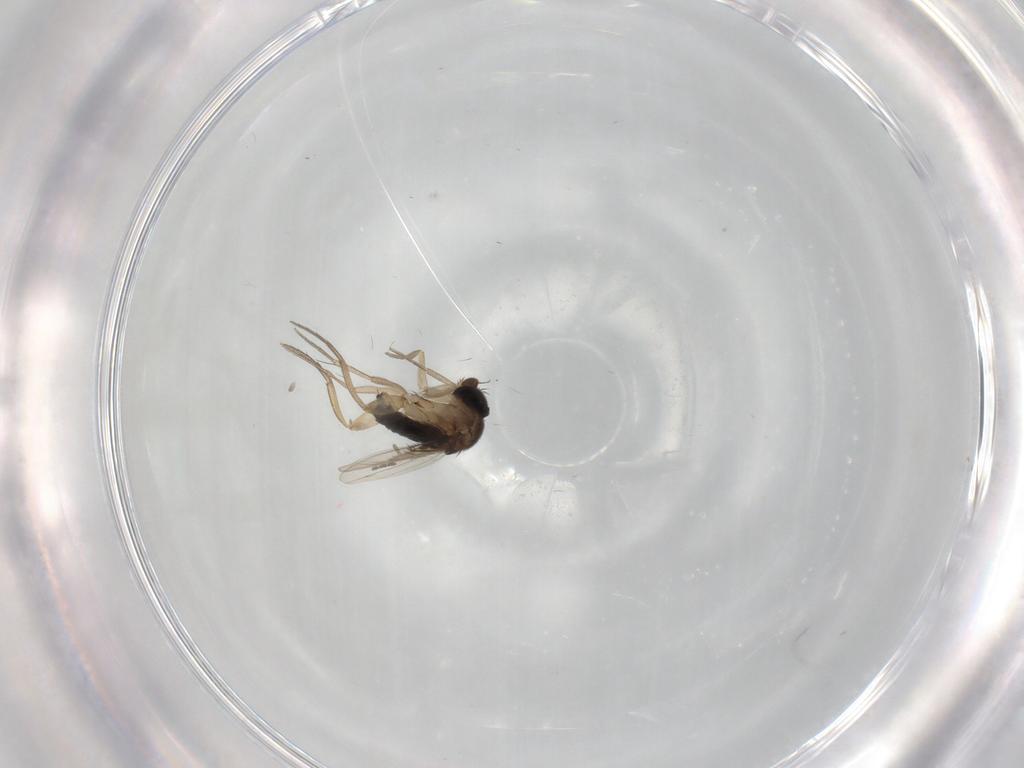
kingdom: Animalia
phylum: Arthropoda
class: Insecta
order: Diptera
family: Phoridae
